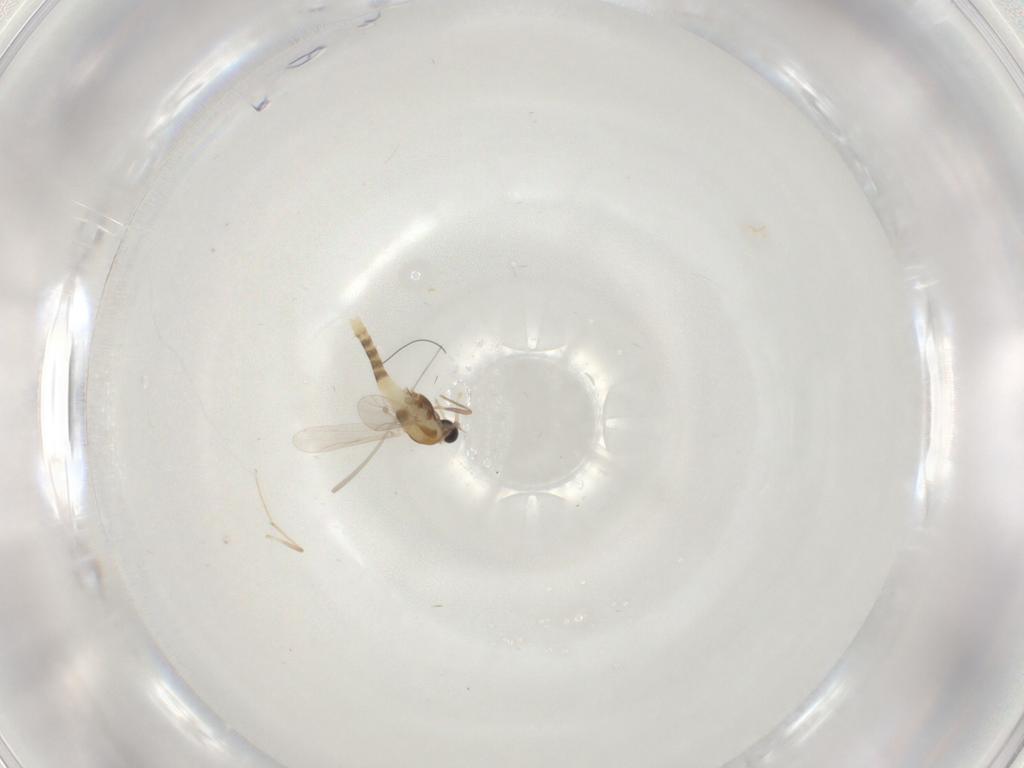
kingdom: Animalia
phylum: Arthropoda
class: Insecta
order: Diptera
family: Chironomidae
